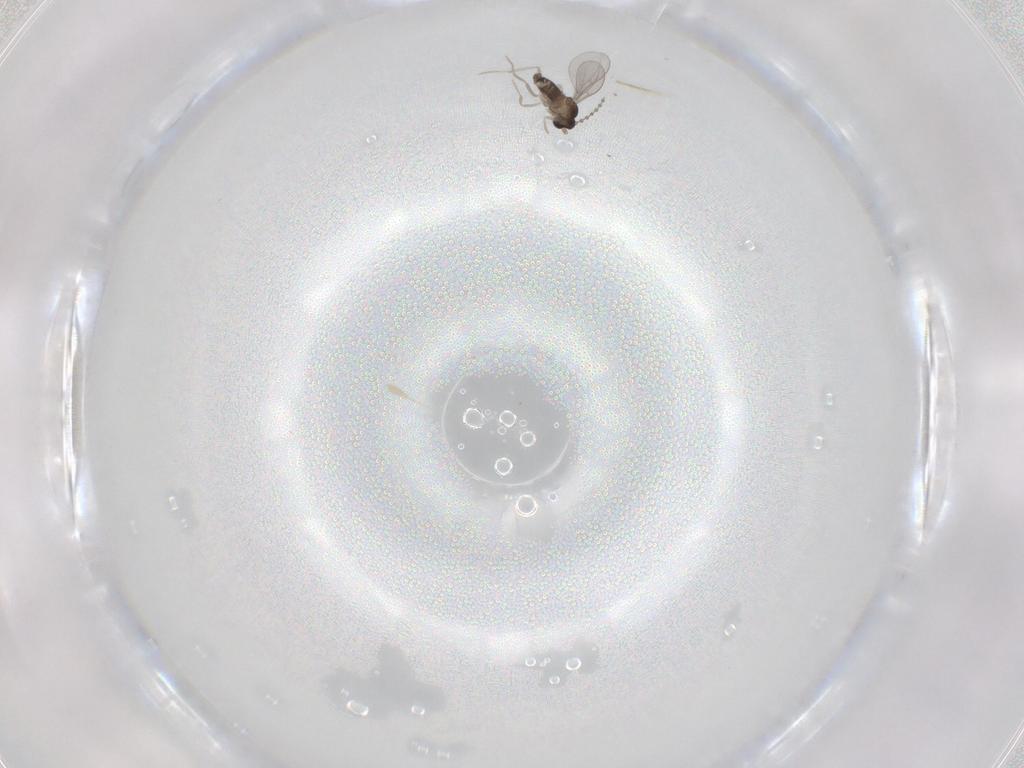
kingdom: Animalia
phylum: Arthropoda
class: Insecta
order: Diptera
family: Cecidomyiidae
